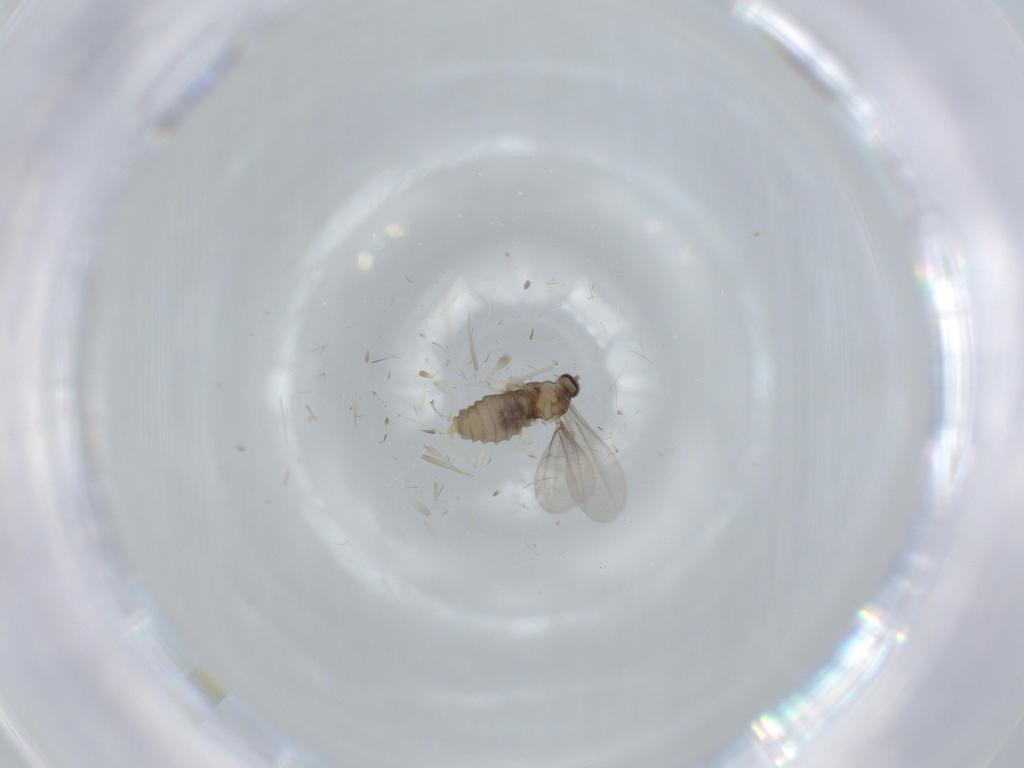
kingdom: Animalia
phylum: Arthropoda
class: Insecta
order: Diptera
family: Cecidomyiidae
